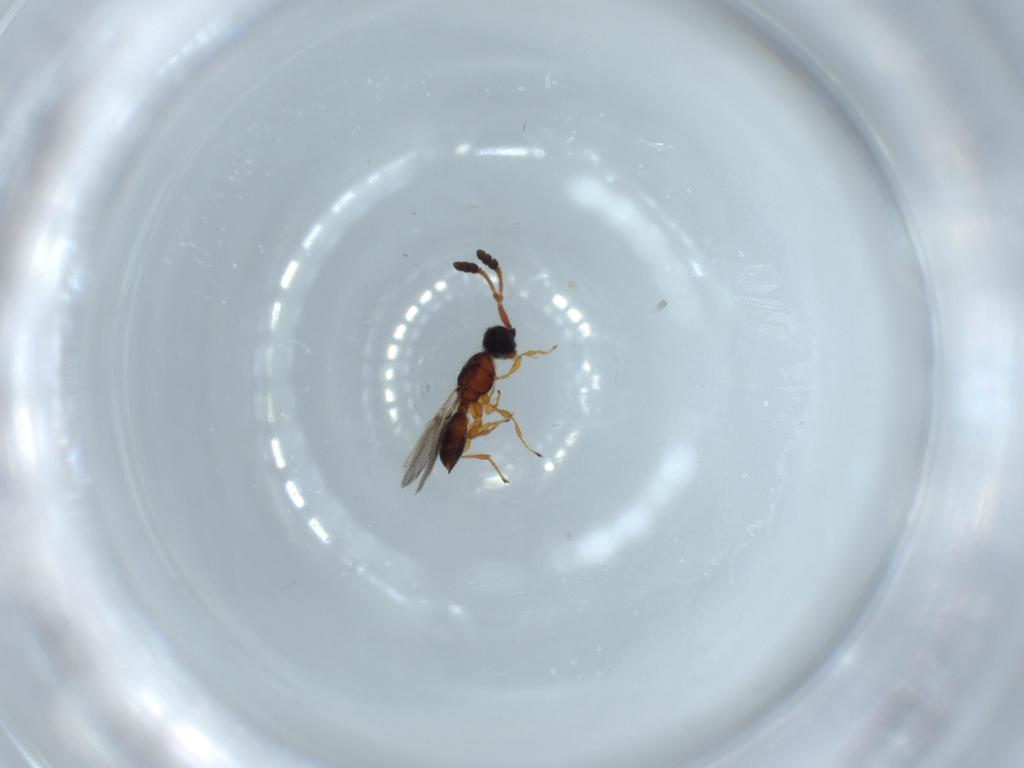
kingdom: Animalia
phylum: Arthropoda
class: Insecta
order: Hymenoptera
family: Diapriidae
